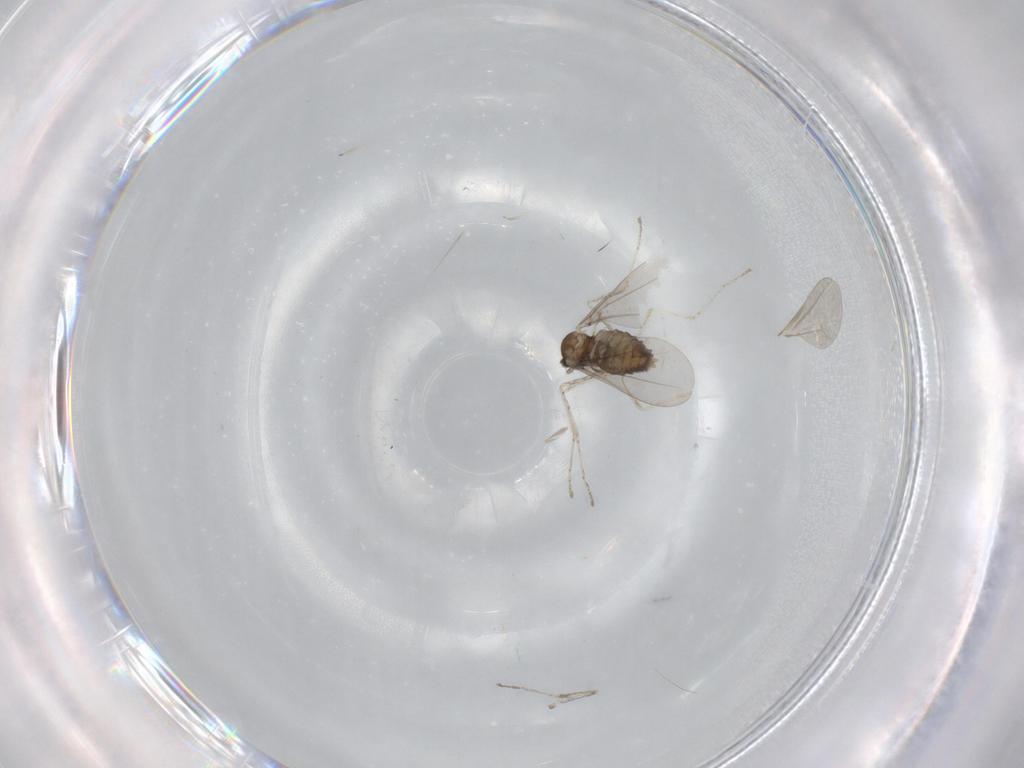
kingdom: Animalia
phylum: Arthropoda
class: Insecta
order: Diptera
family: Cecidomyiidae
